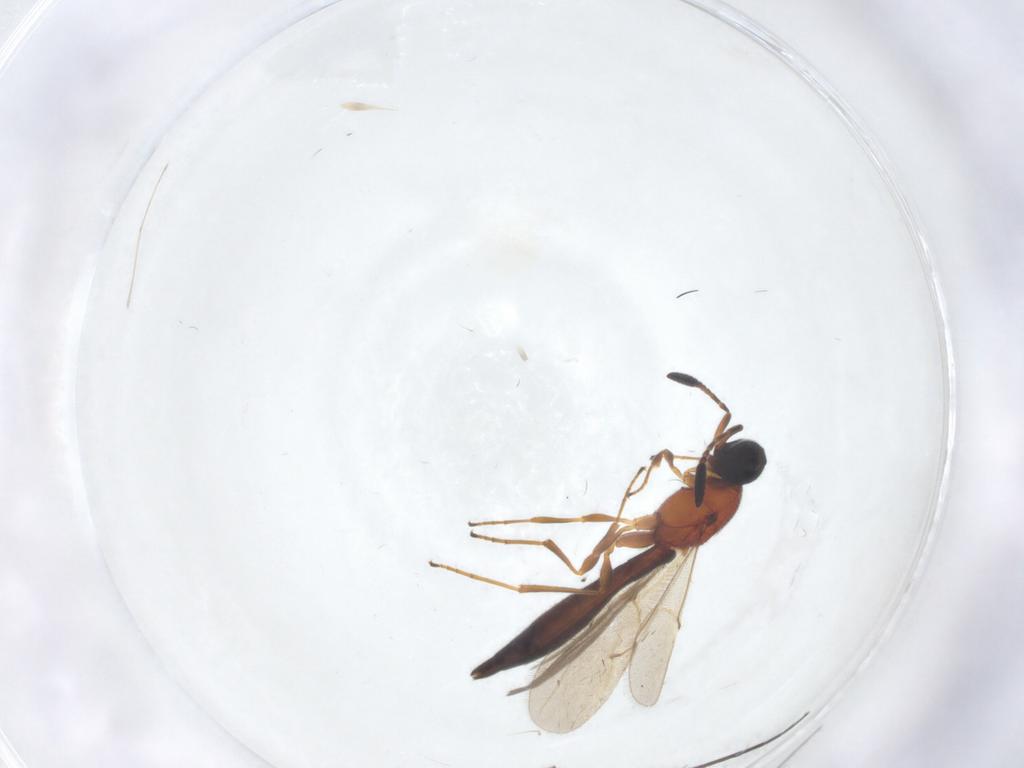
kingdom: Animalia
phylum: Arthropoda
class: Insecta
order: Hymenoptera
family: Scelionidae
